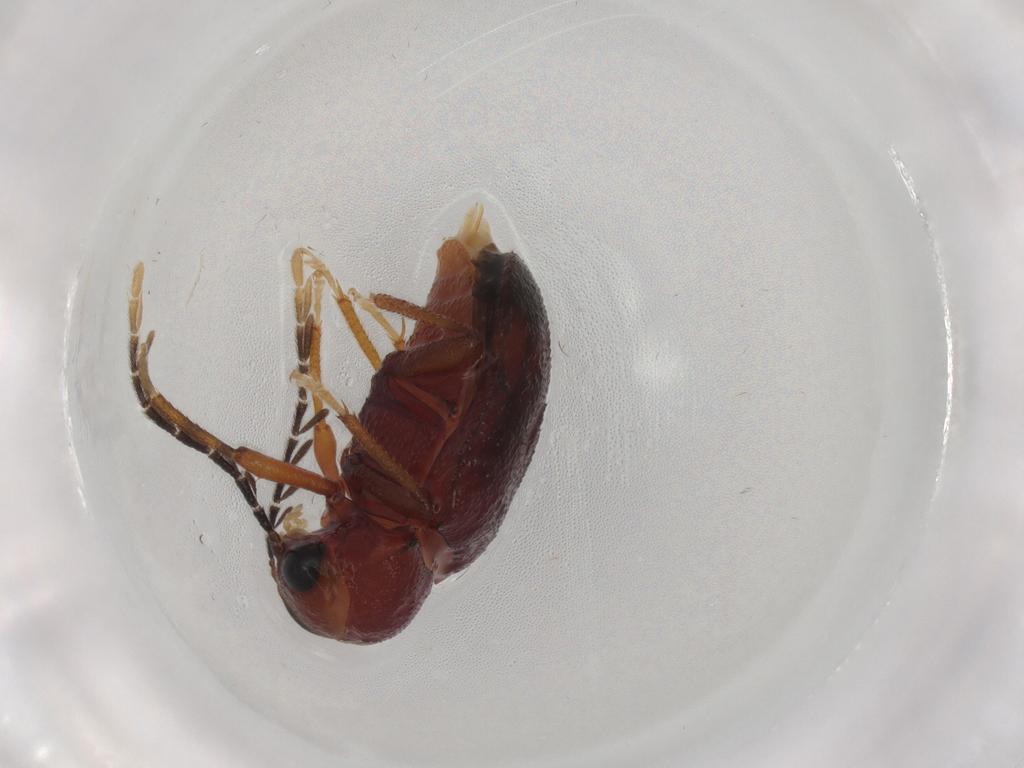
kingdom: Animalia
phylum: Arthropoda
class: Insecta
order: Coleoptera
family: Ptilodactylidae
